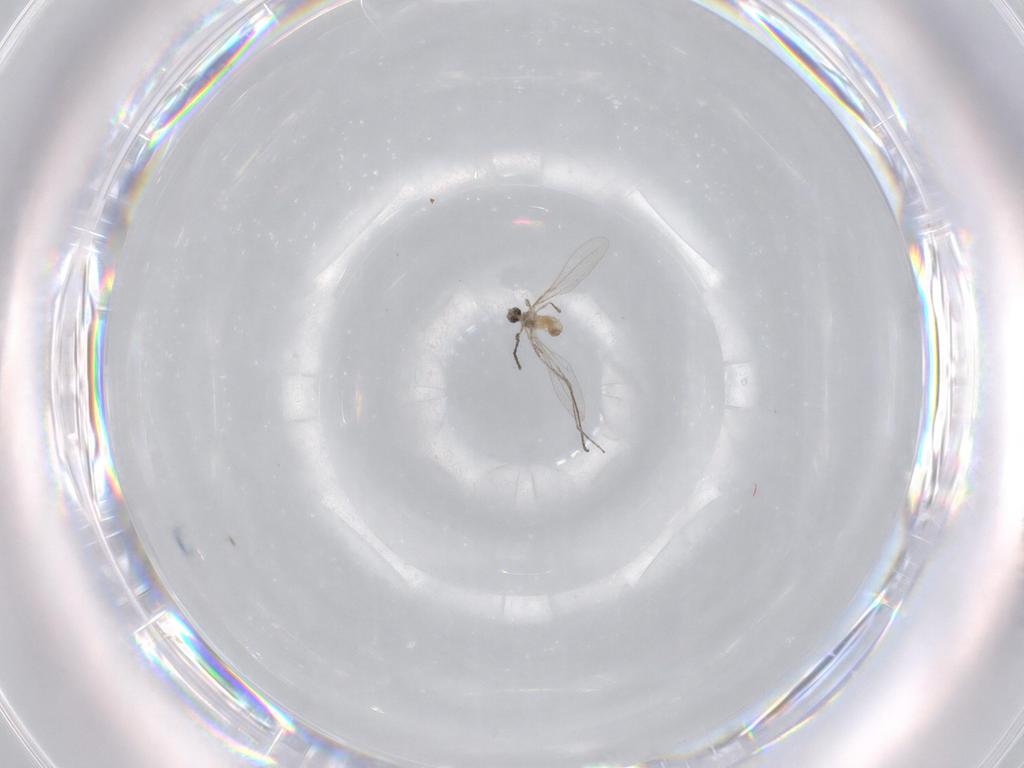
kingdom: Animalia
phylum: Arthropoda
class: Insecta
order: Diptera
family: Cecidomyiidae
